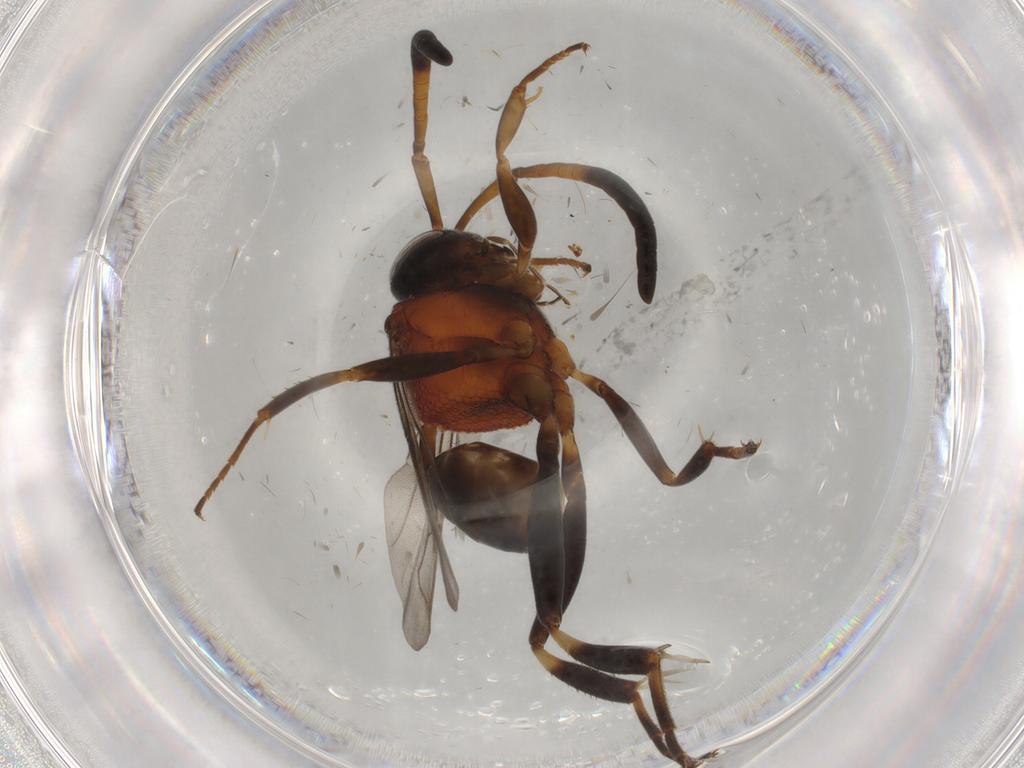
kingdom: Animalia
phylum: Arthropoda
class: Insecta
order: Hymenoptera
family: Evaniidae
